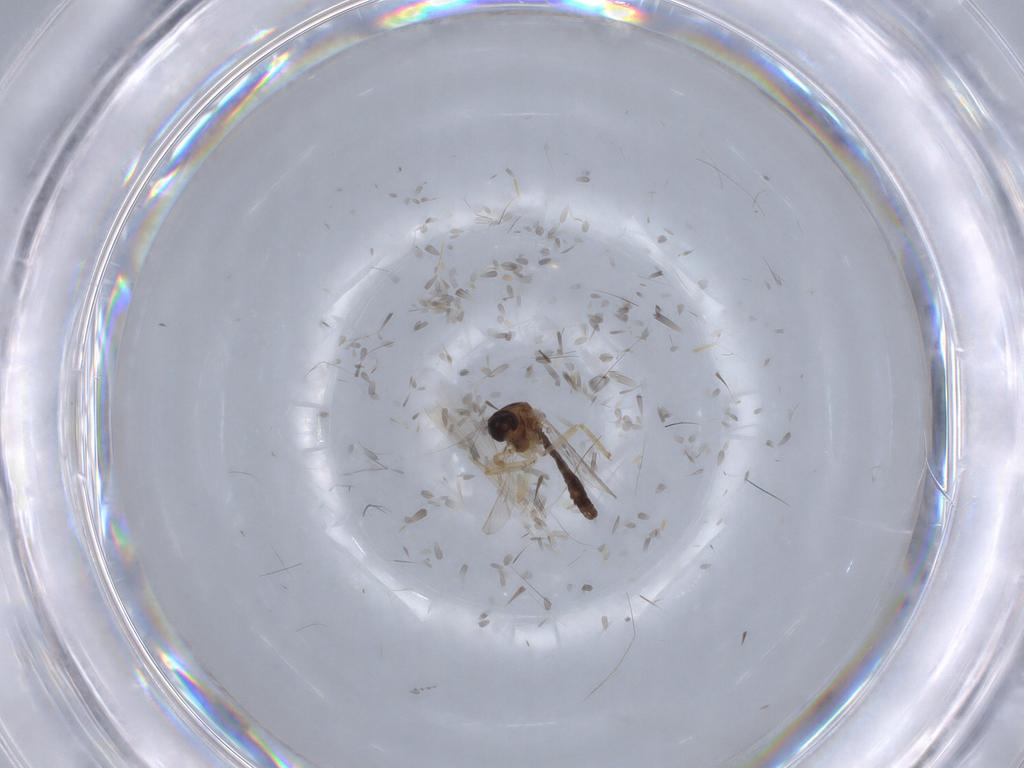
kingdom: Animalia
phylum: Arthropoda
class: Insecta
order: Diptera
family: Ceratopogonidae
